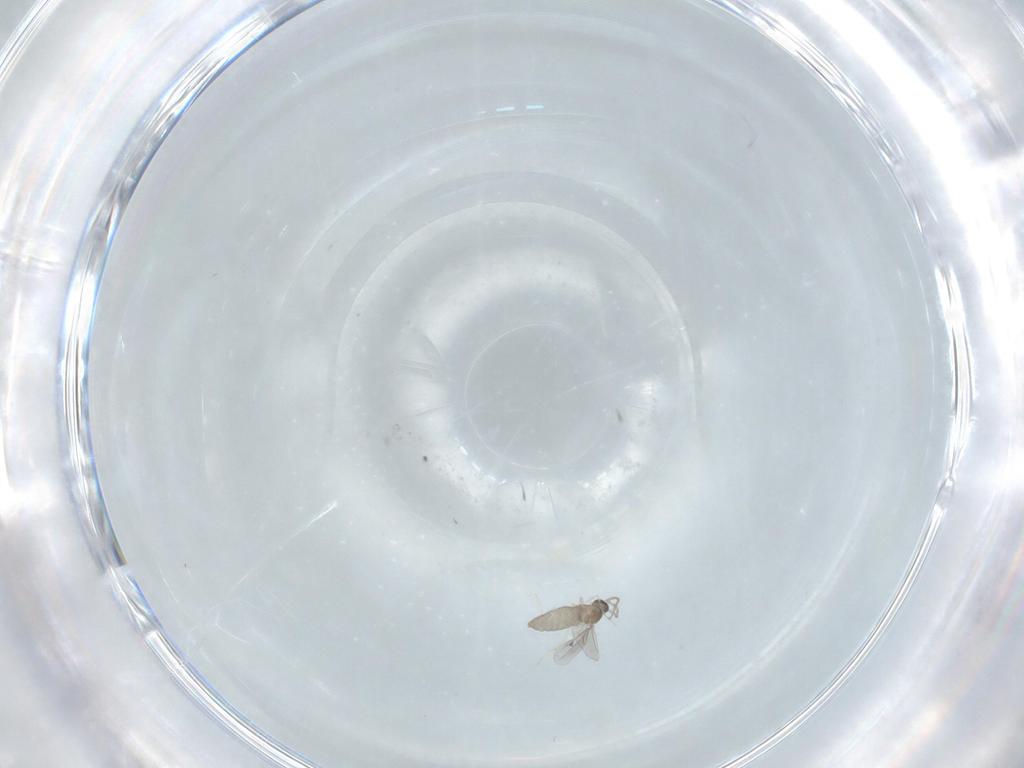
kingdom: Animalia
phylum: Arthropoda
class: Insecta
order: Diptera
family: Cecidomyiidae
